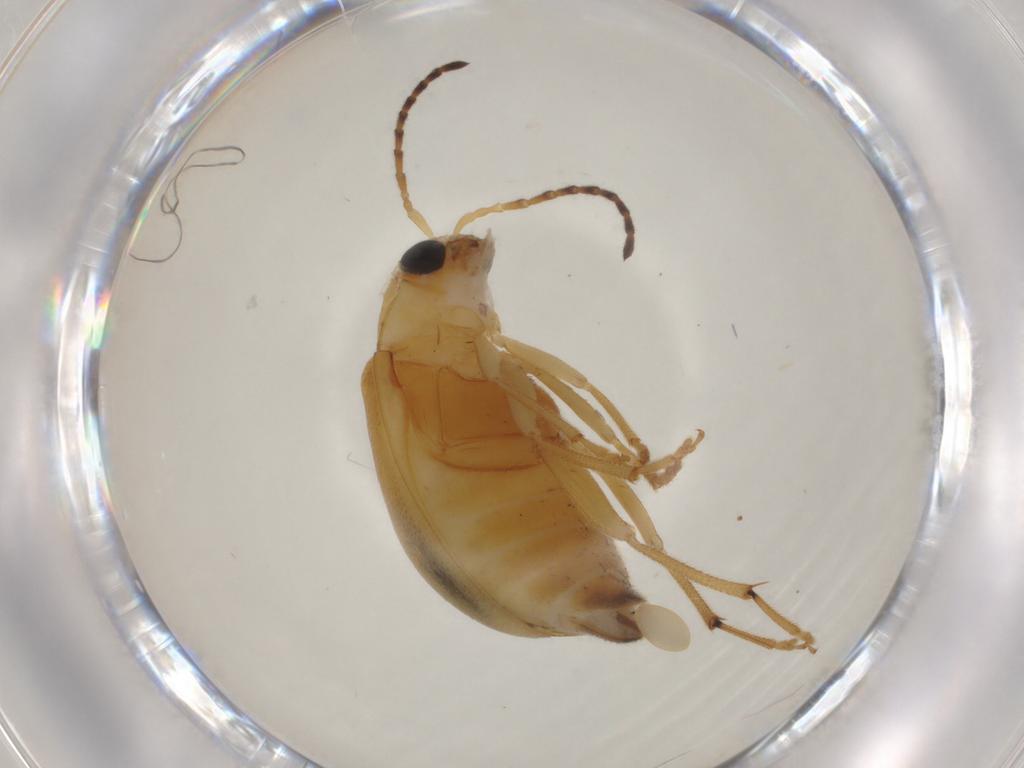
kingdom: Animalia
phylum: Arthropoda
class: Insecta
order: Coleoptera
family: Chrysomelidae
